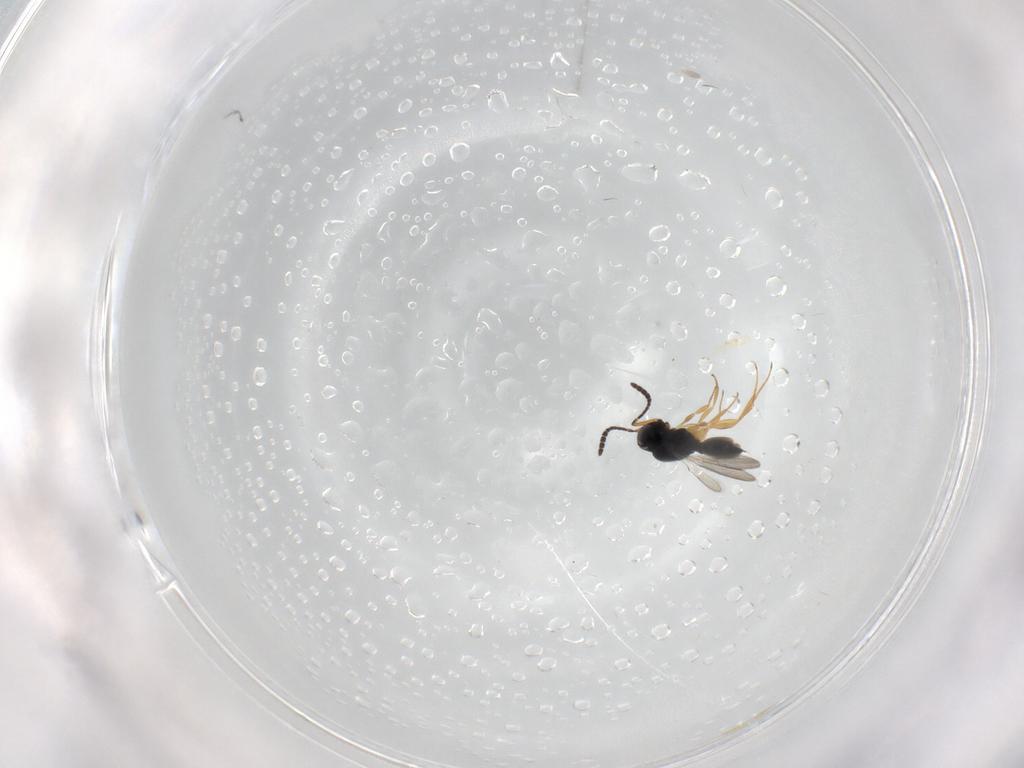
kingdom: Animalia
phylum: Arthropoda
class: Insecta
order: Hymenoptera
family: Scelionidae
